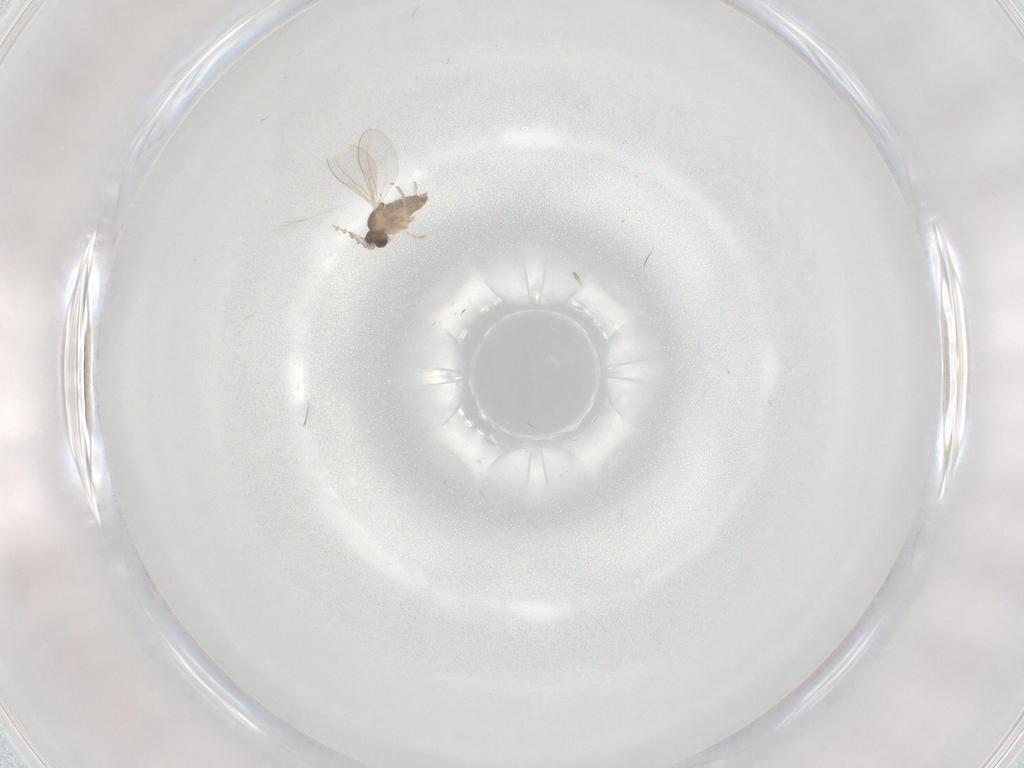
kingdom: Animalia
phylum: Arthropoda
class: Insecta
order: Diptera
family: Cecidomyiidae
